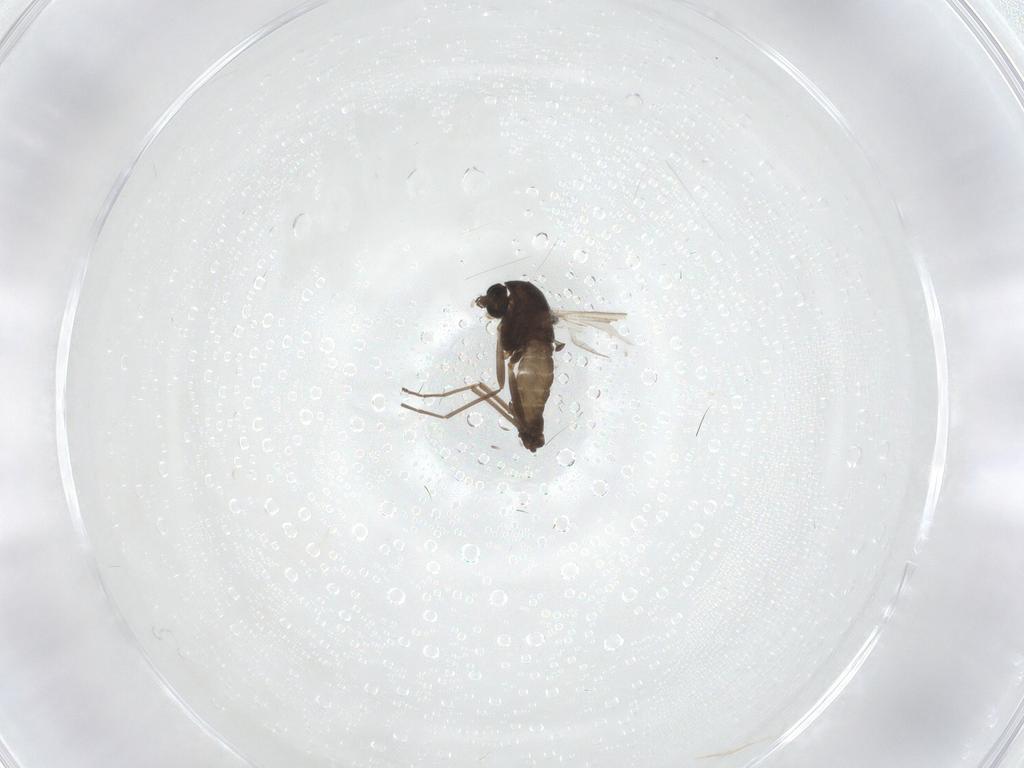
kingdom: Animalia
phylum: Arthropoda
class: Insecta
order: Diptera
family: Chironomidae
